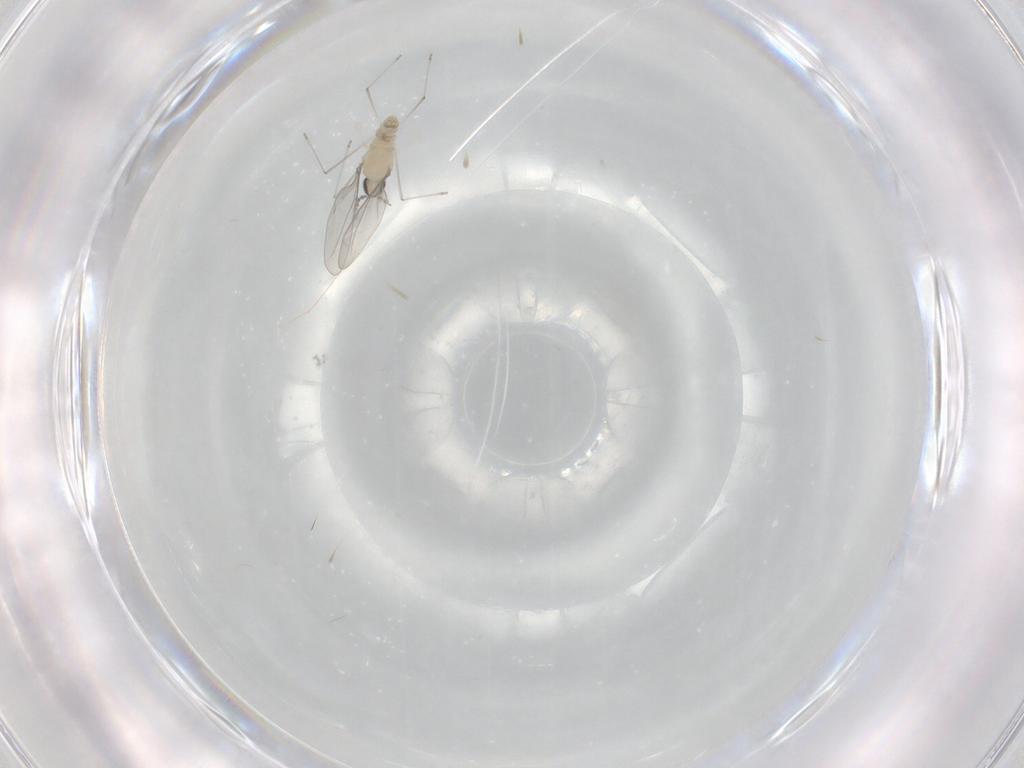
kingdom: Animalia
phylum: Arthropoda
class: Insecta
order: Diptera
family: Cecidomyiidae
